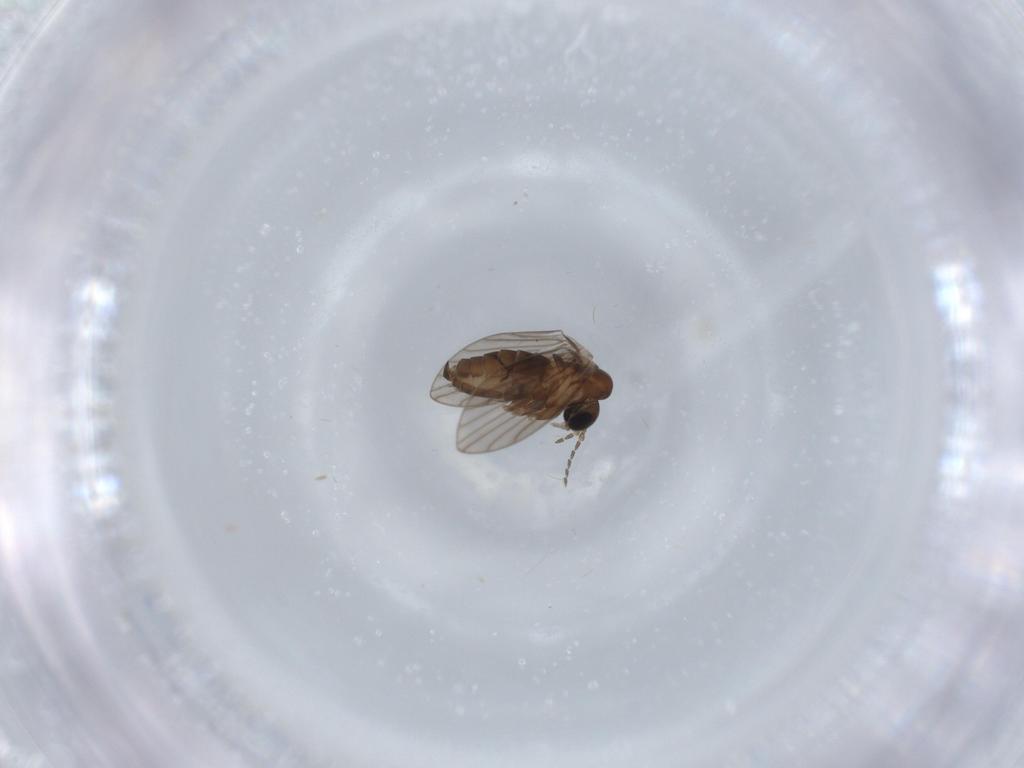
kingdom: Animalia
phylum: Arthropoda
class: Insecta
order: Diptera
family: Psychodidae
